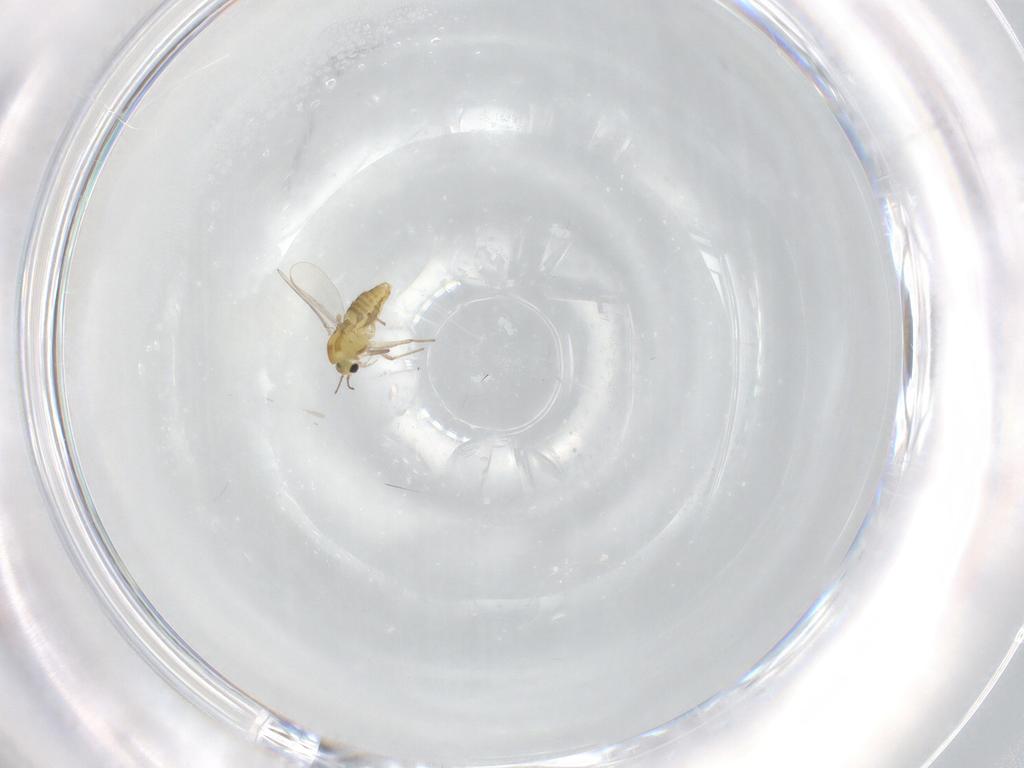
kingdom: Animalia
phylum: Arthropoda
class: Insecta
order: Diptera
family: Dolichopodidae
